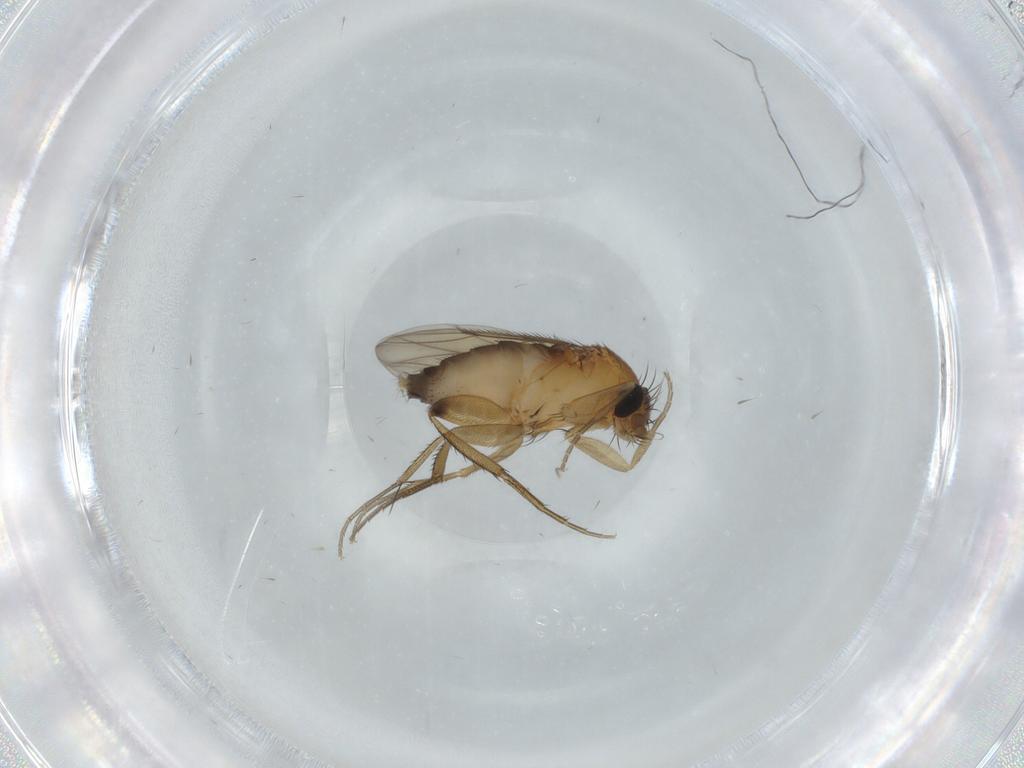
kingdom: Animalia
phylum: Arthropoda
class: Insecta
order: Diptera
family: Phoridae
